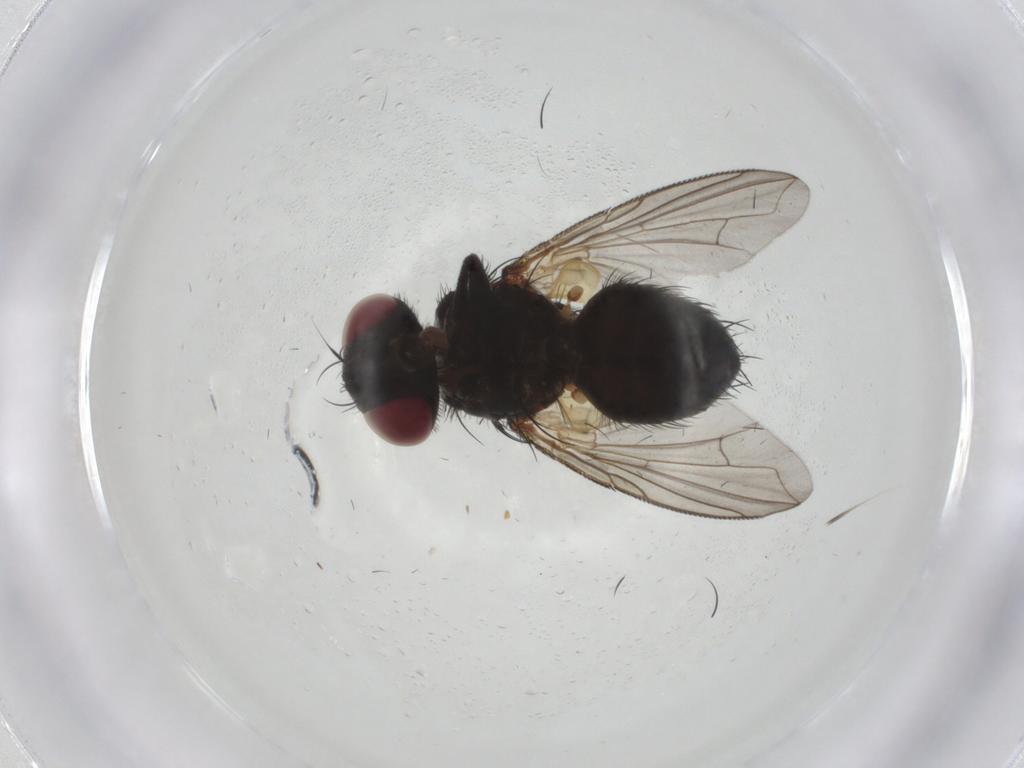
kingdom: Animalia
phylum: Arthropoda
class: Insecta
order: Diptera
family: Tachinidae
